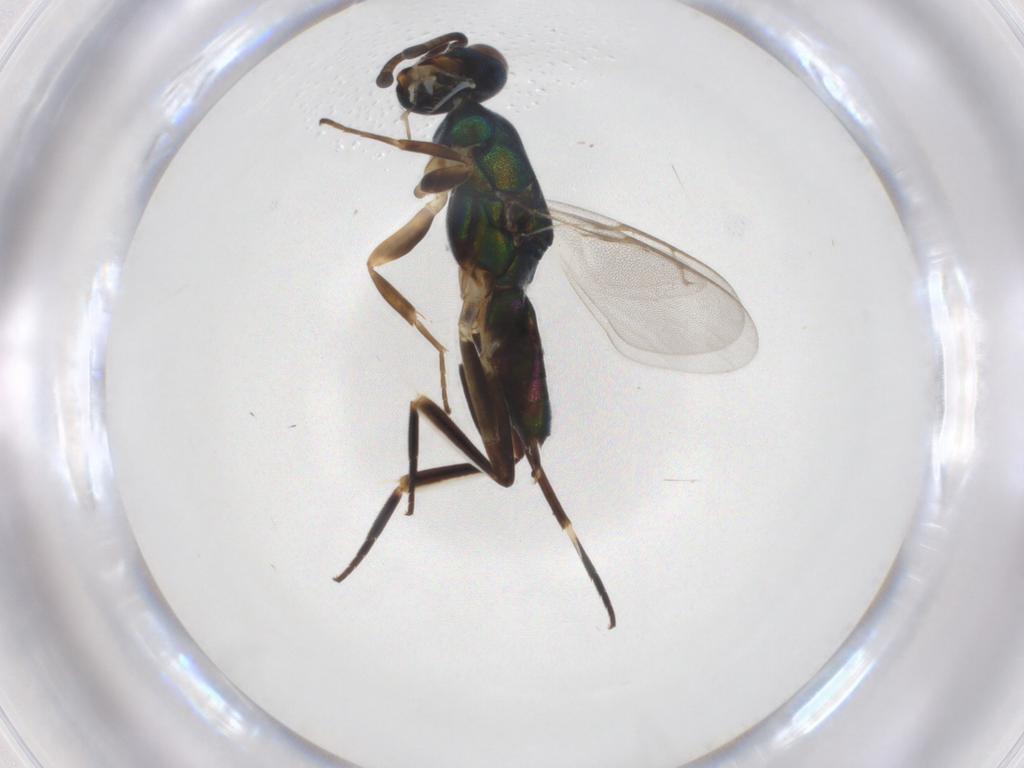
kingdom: Animalia
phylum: Arthropoda
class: Insecta
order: Hymenoptera
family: Eupelmidae
